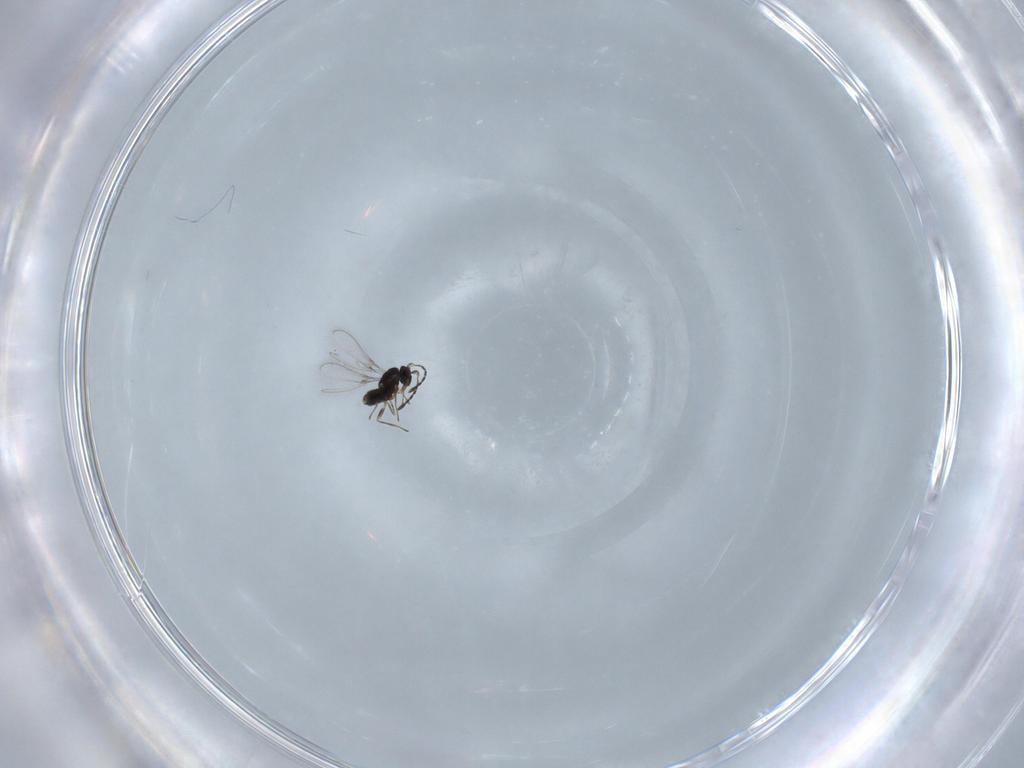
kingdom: Animalia
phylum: Arthropoda
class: Insecta
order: Hymenoptera
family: Mymaridae
